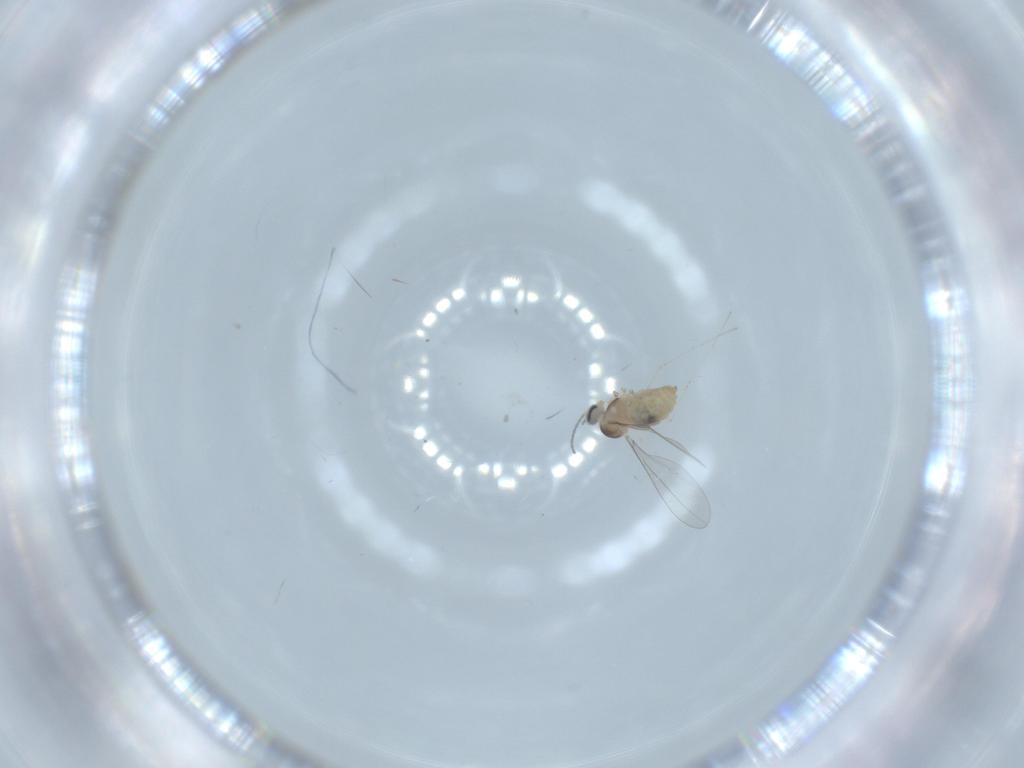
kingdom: Animalia
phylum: Arthropoda
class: Insecta
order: Diptera
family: Cecidomyiidae
